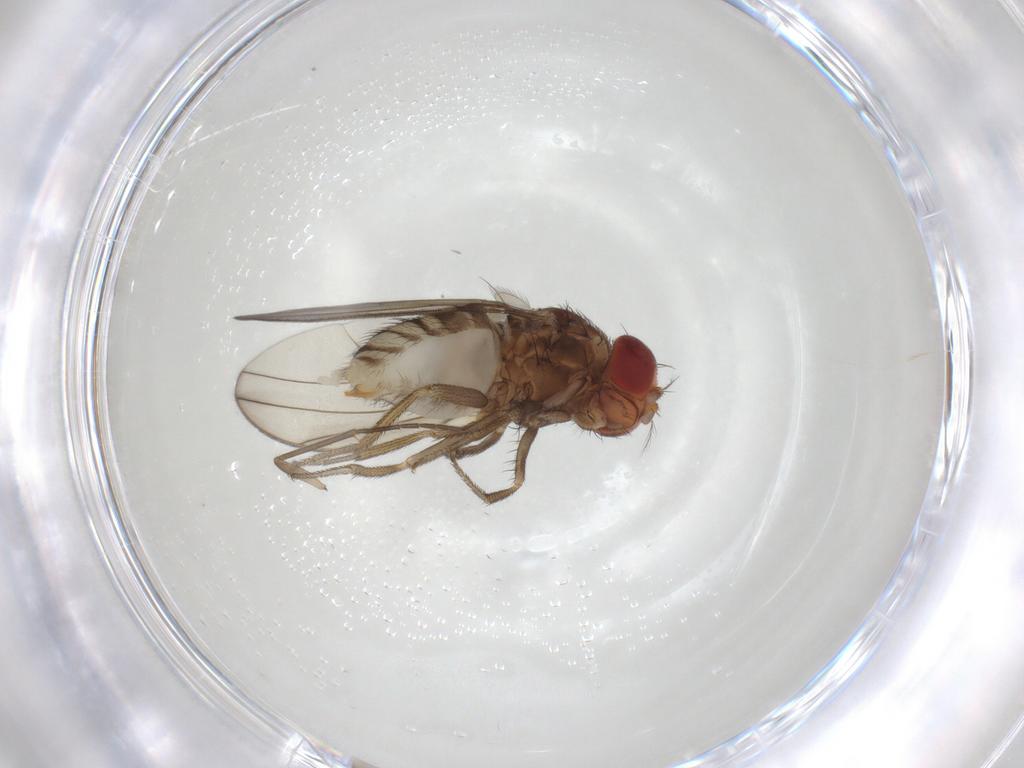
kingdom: Animalia
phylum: Arthropoda
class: Insecta
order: Diptera
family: Drosophilidae
